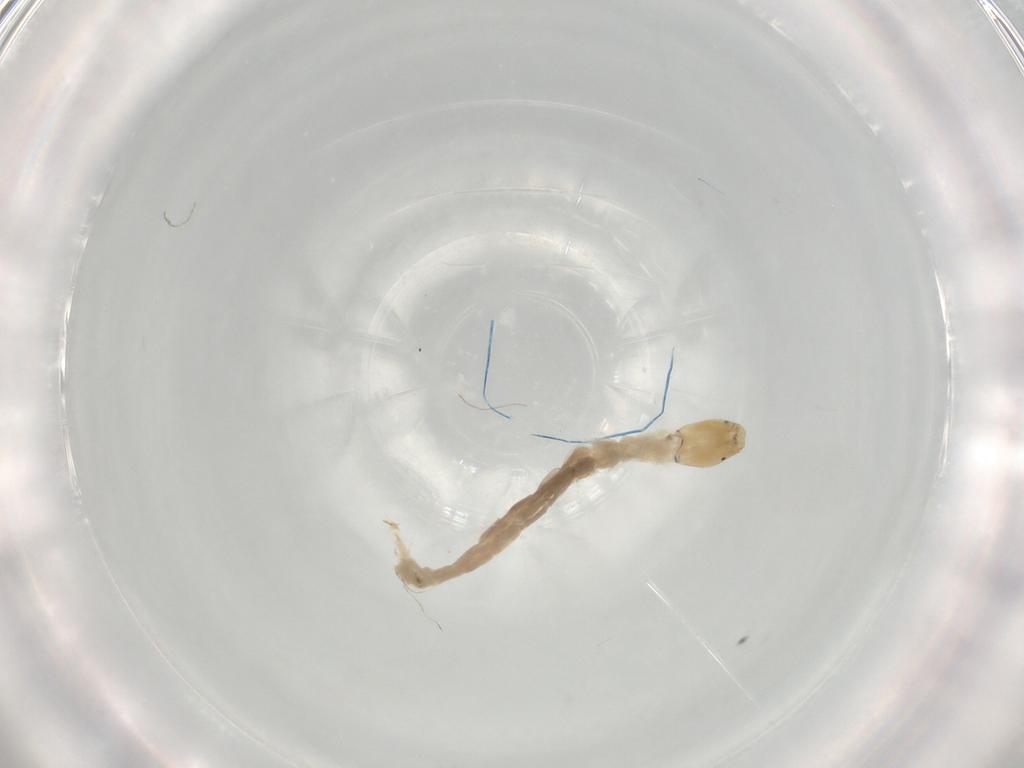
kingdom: Animalia
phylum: Arthropoda
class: Insecta
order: Diptera
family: Chironomidae
